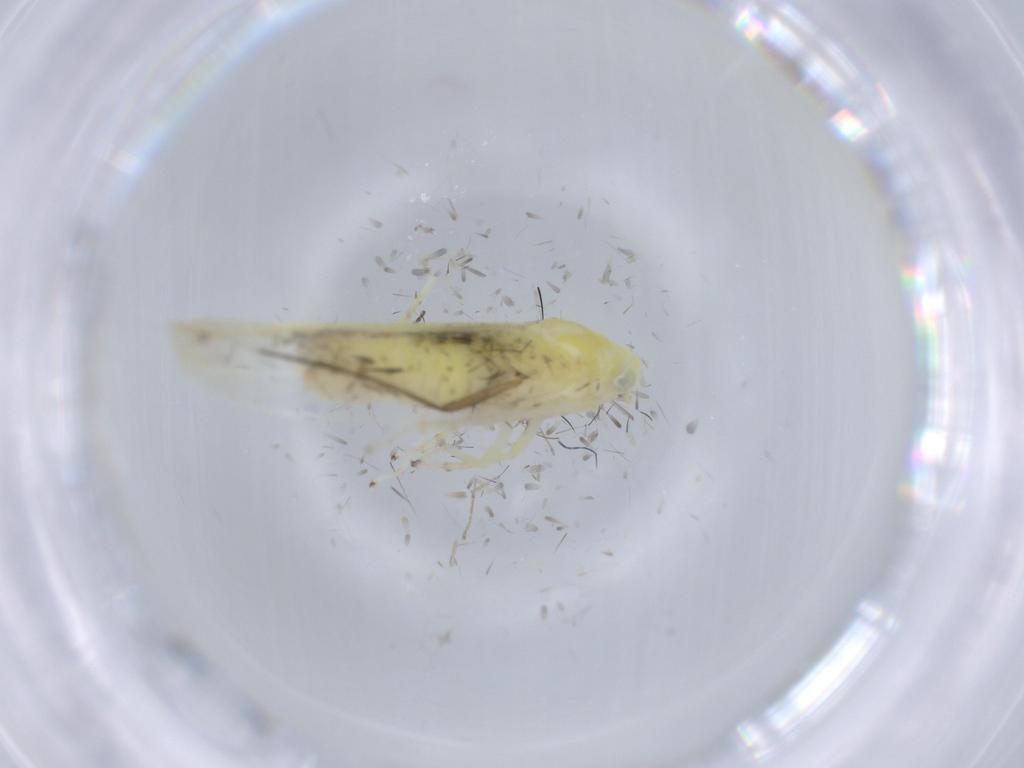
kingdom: Animalia
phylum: Arthropoda
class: Insecta
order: Hemiptera
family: Cicadellidae
